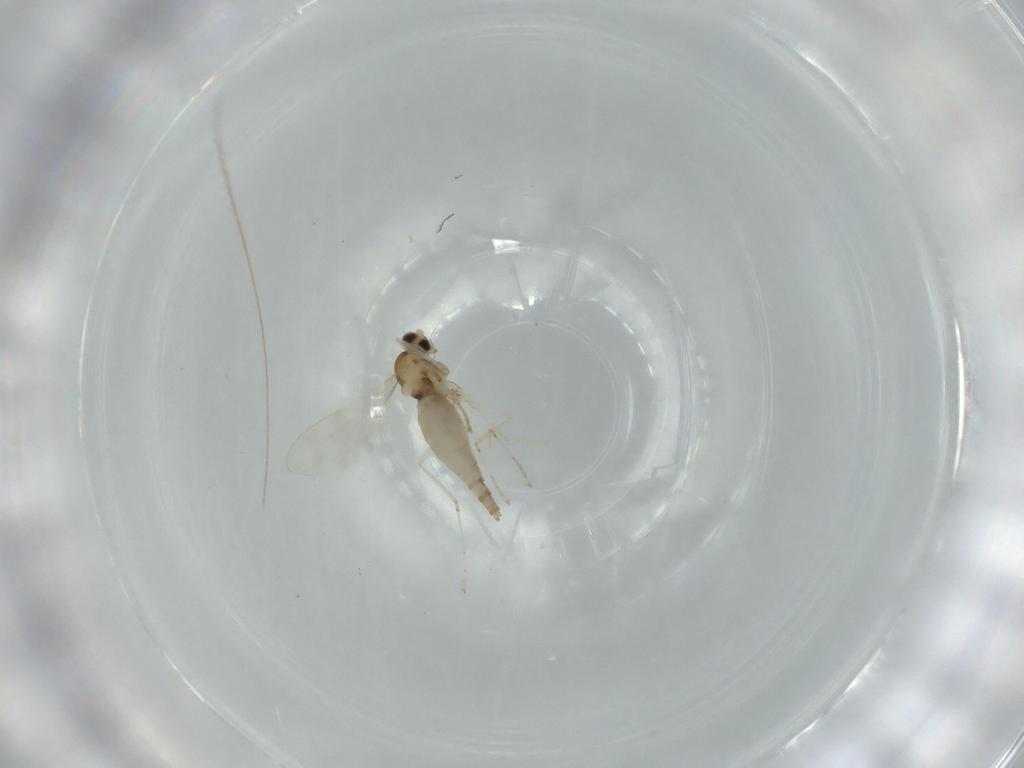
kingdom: Animalia
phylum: Arthropoda
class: Insecta
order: Diptera
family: Cecidomyiidae
